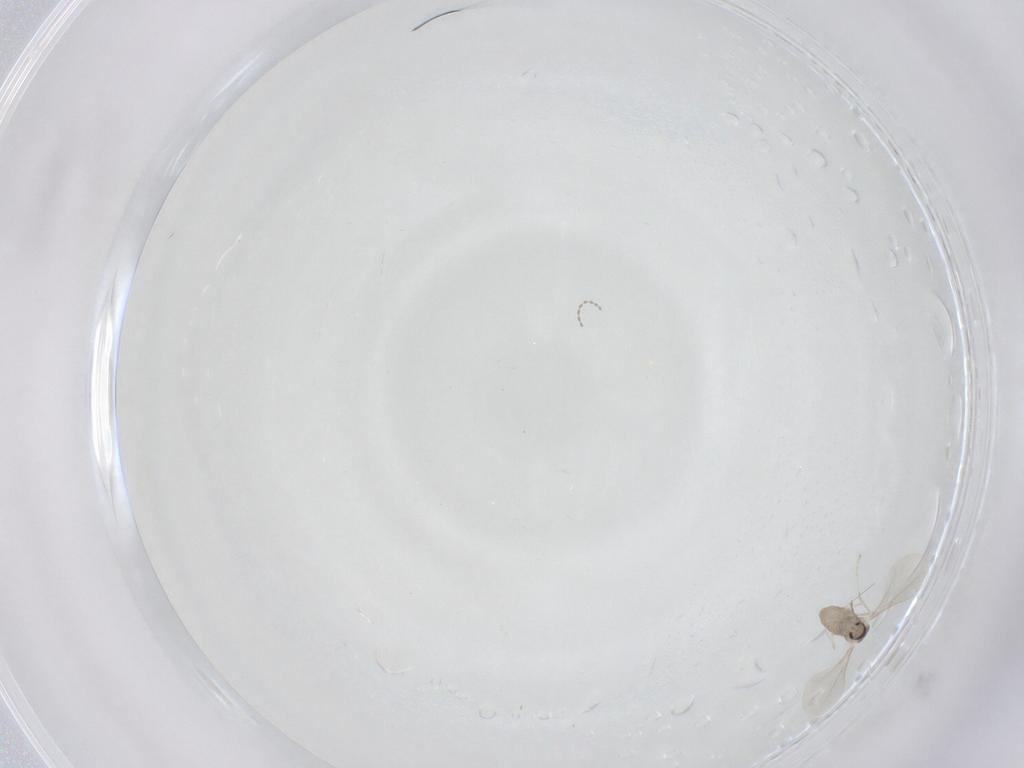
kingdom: Animalia
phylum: Arthropoda
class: Insecta
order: Diptera
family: Cecidomyiidae
